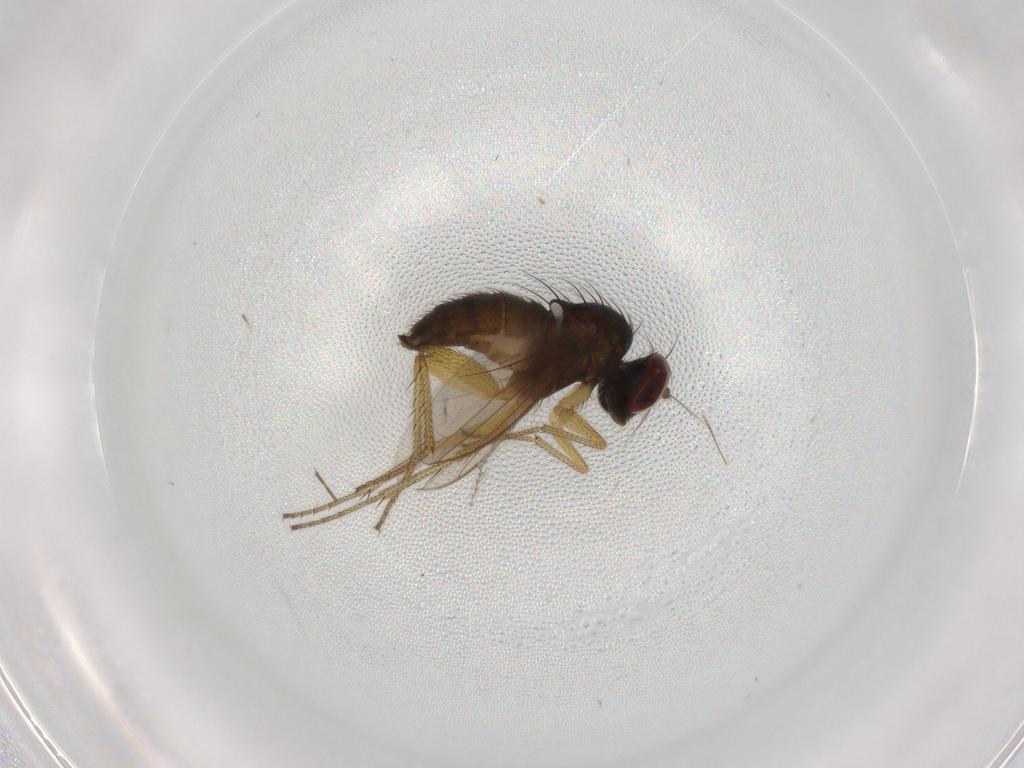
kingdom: Animalia
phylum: Arthropoda
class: Insecta
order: Diptera
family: Dolichopodidae
